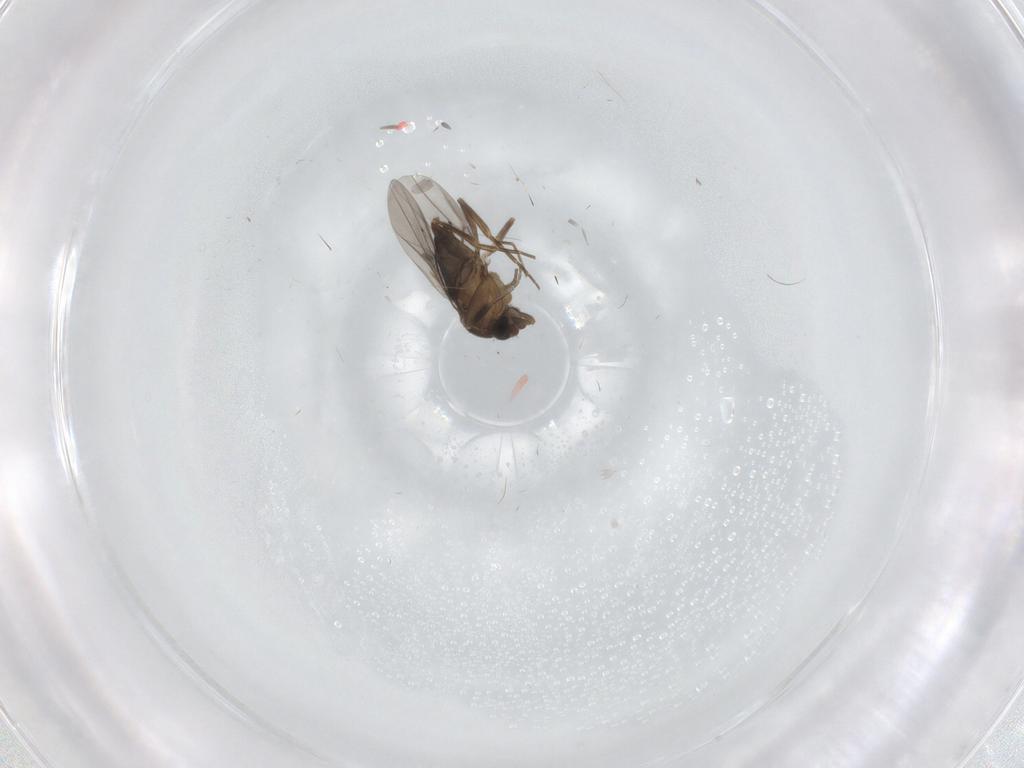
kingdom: Animalia
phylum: Arthropoda
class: Insecta
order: Diptera
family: Phoridae
